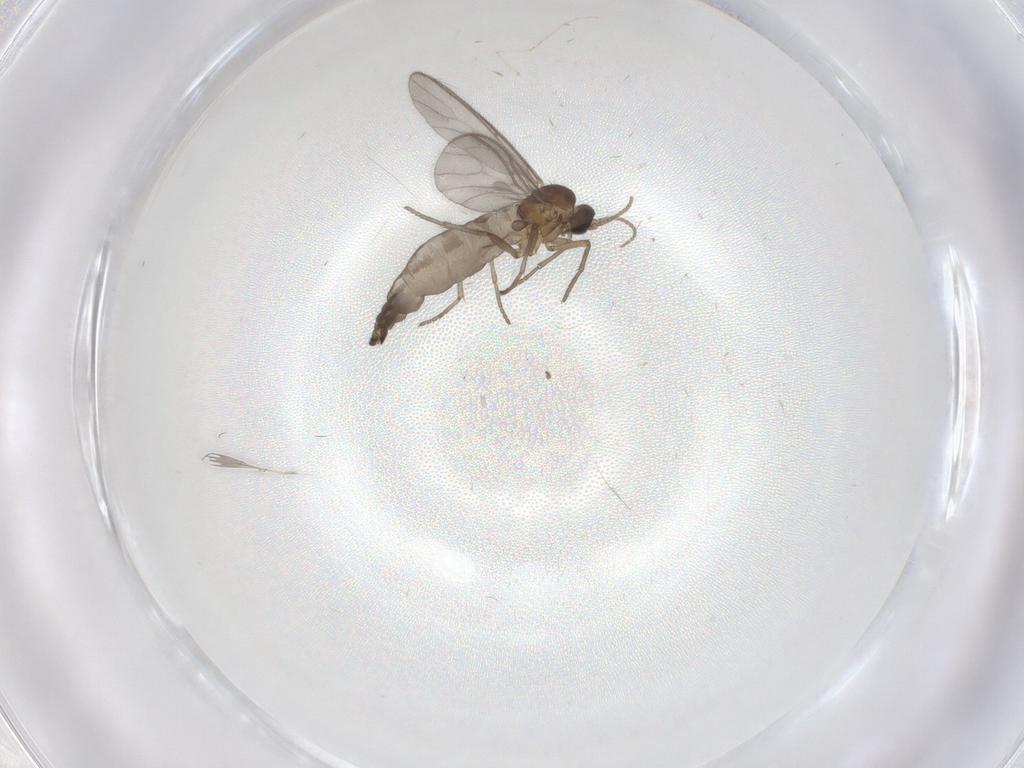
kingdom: Animalia
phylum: Arthropoda
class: Insecta
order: Diptera
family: Sciaridae
